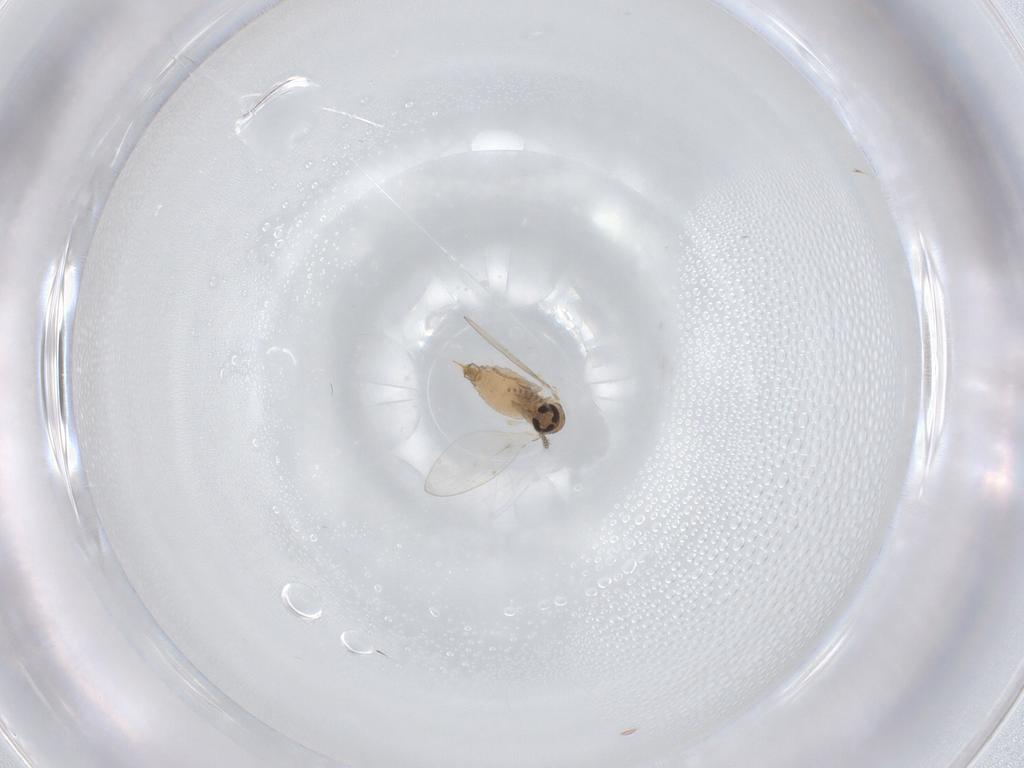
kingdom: Animalia
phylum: Arthropoda
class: Insecta
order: Diptera
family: Psychodidae
